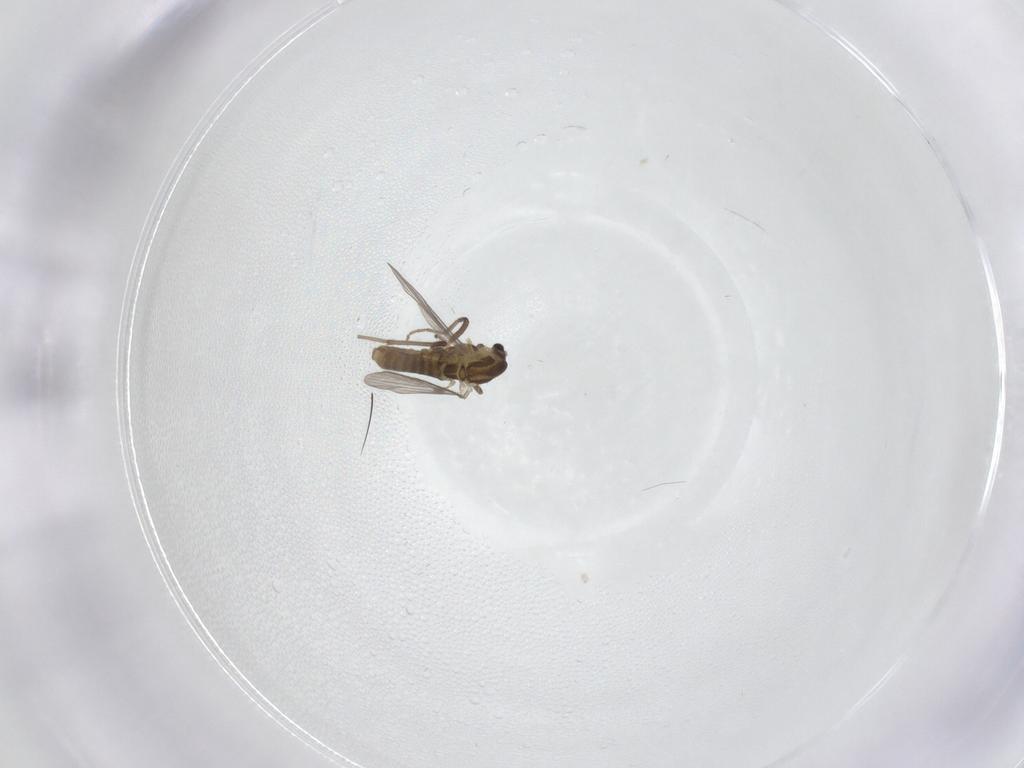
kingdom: Animalia
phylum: Arthropoda
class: Insecta
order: Diptera
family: Chironomidae
